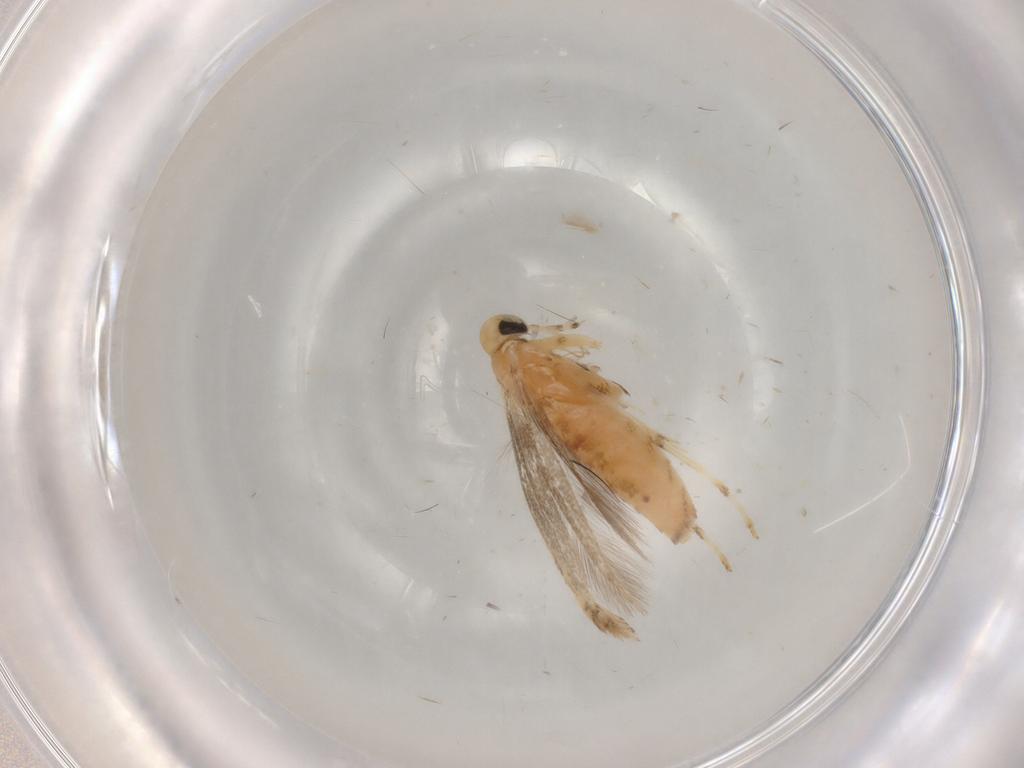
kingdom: Animalia
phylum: Arthropoda
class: Insecta
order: Lepidoptera
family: Gracillariidae
